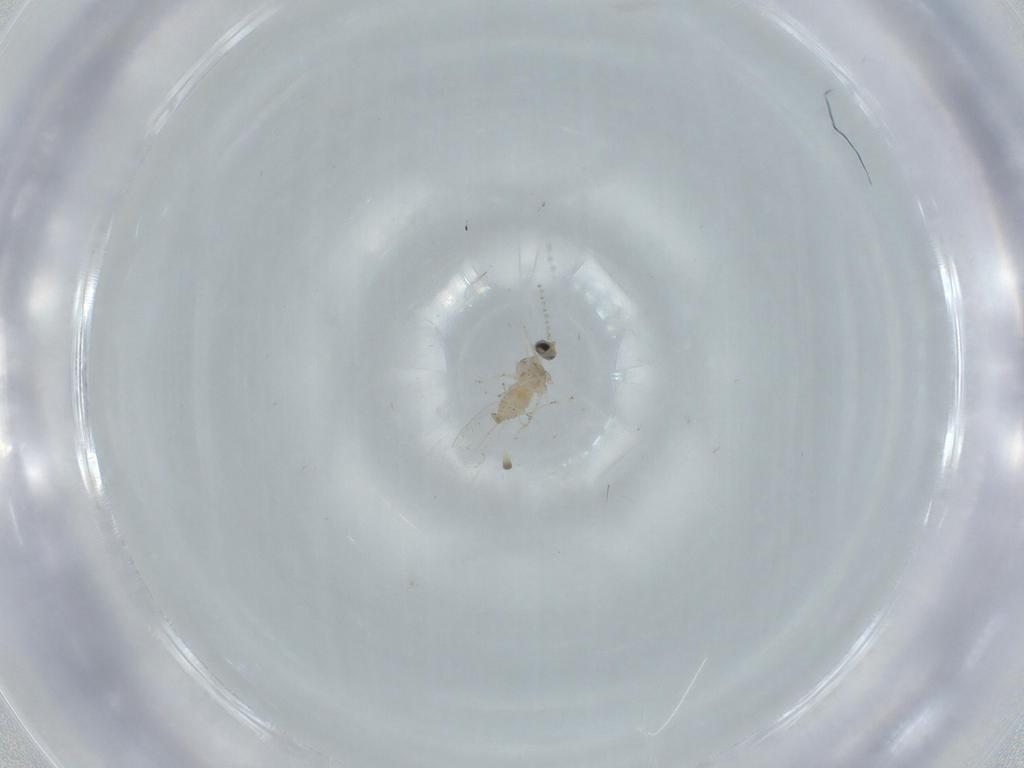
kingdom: Animalia
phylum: Arthropoda
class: Insecta
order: Diptera
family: Cecidomyiidae
